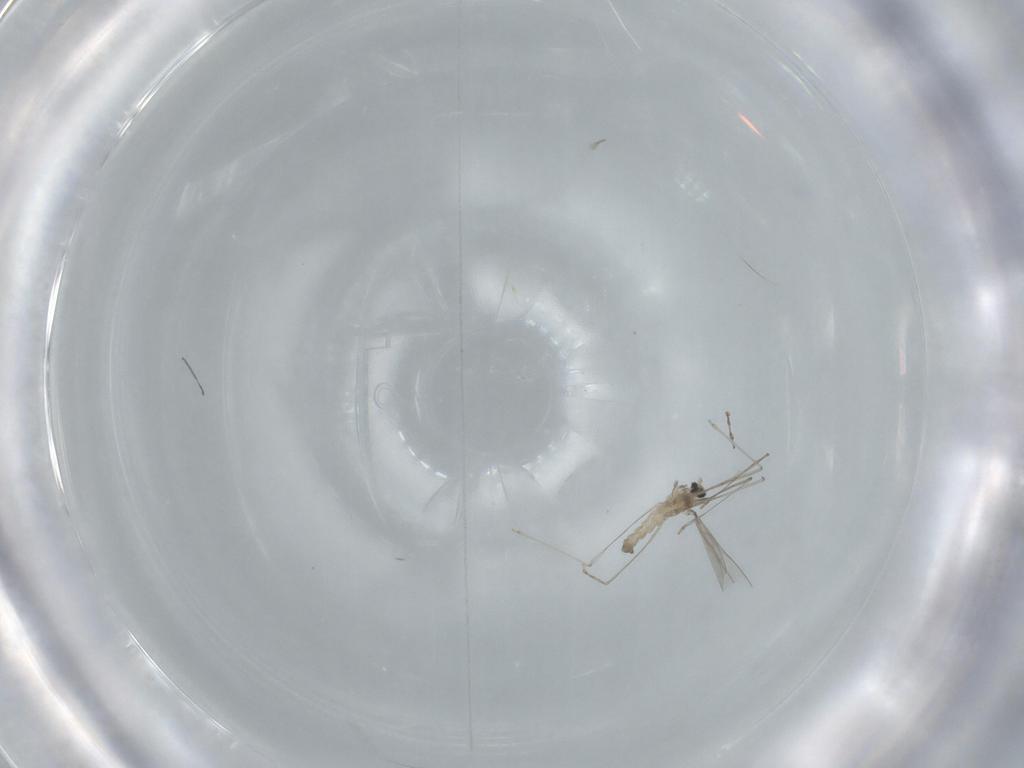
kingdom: Animalia
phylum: Arthropoda
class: Insecta
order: Diptera
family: Cecidomyiidae
